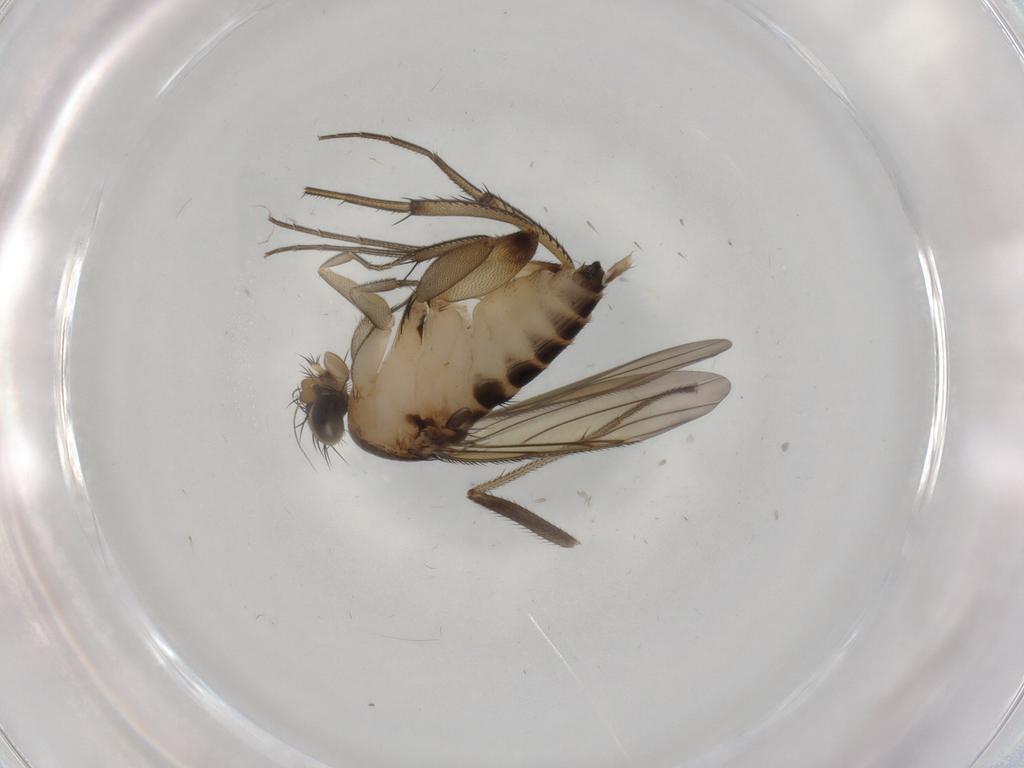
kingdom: Animalia
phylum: Arthropoda
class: Insecta
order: Diptera
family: Cecidomyiidae
